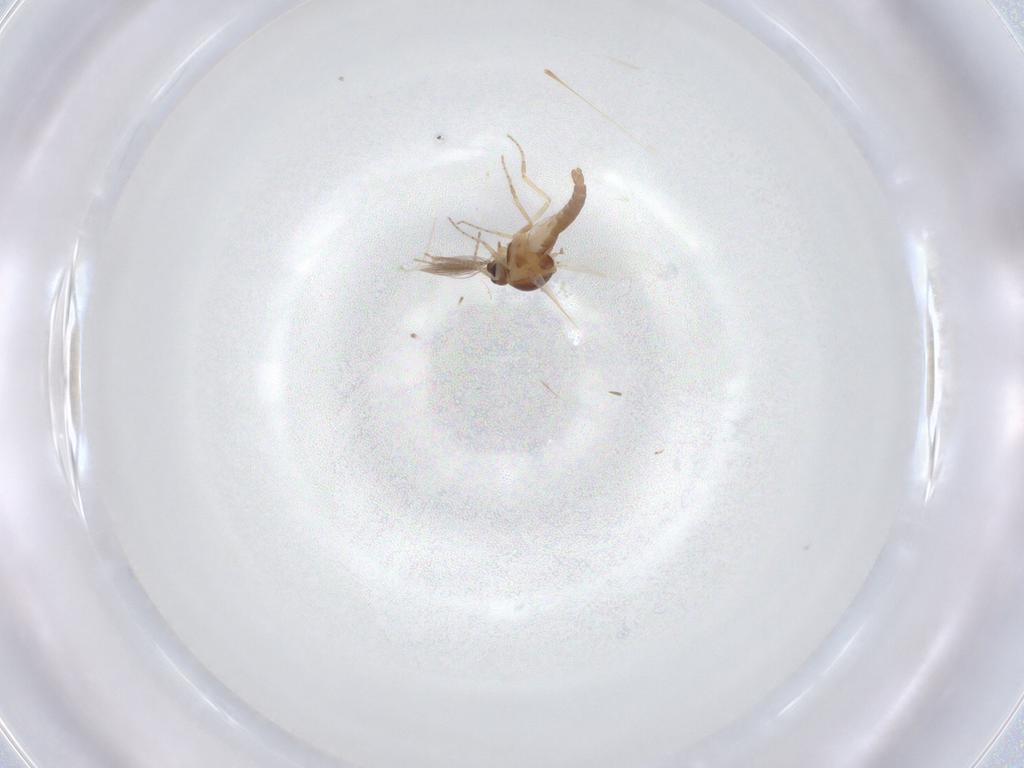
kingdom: Animalia
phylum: Arthropoda
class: Insecta
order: Diptera
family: Ceratopogonidae
